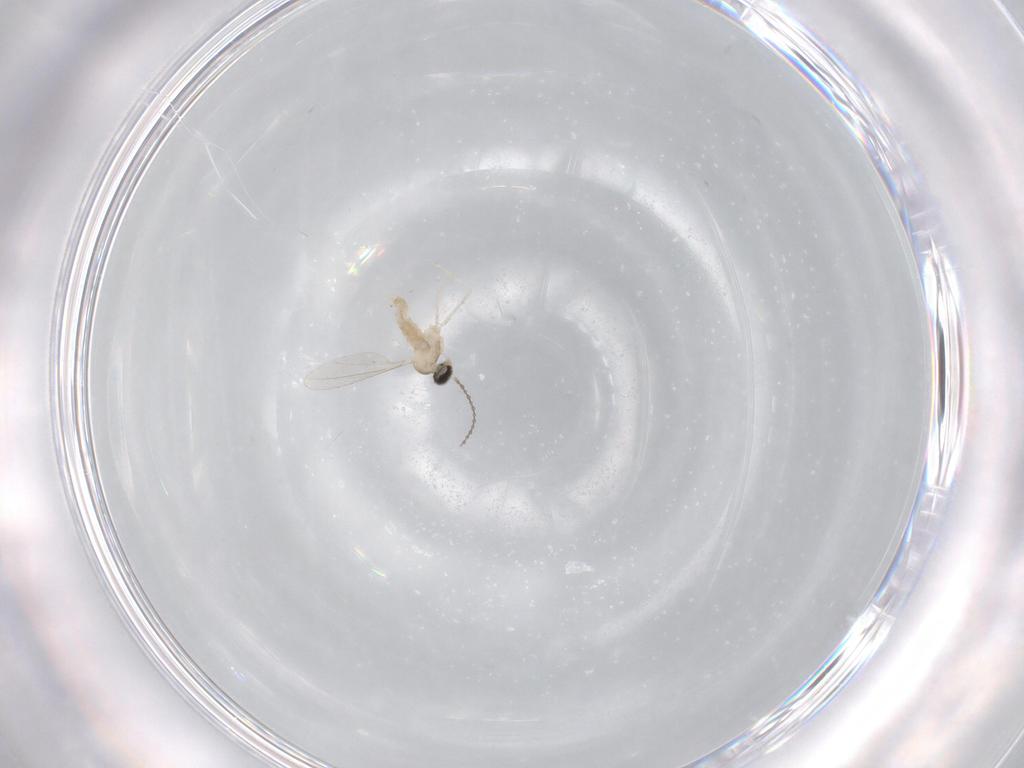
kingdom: Animalia
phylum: Arthropoda
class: Insecta
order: Diptera
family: Cecidomyiidae
